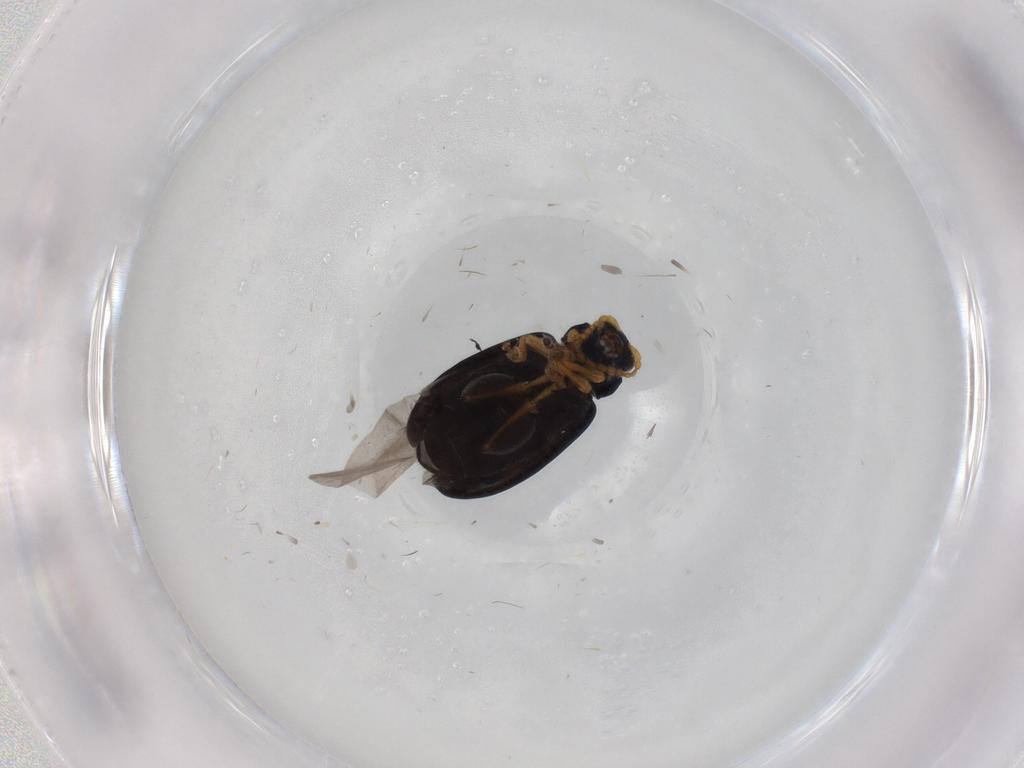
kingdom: Animalia
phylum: Arthropoda
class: Insecta
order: Coleoptera
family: Chrysomelidae
